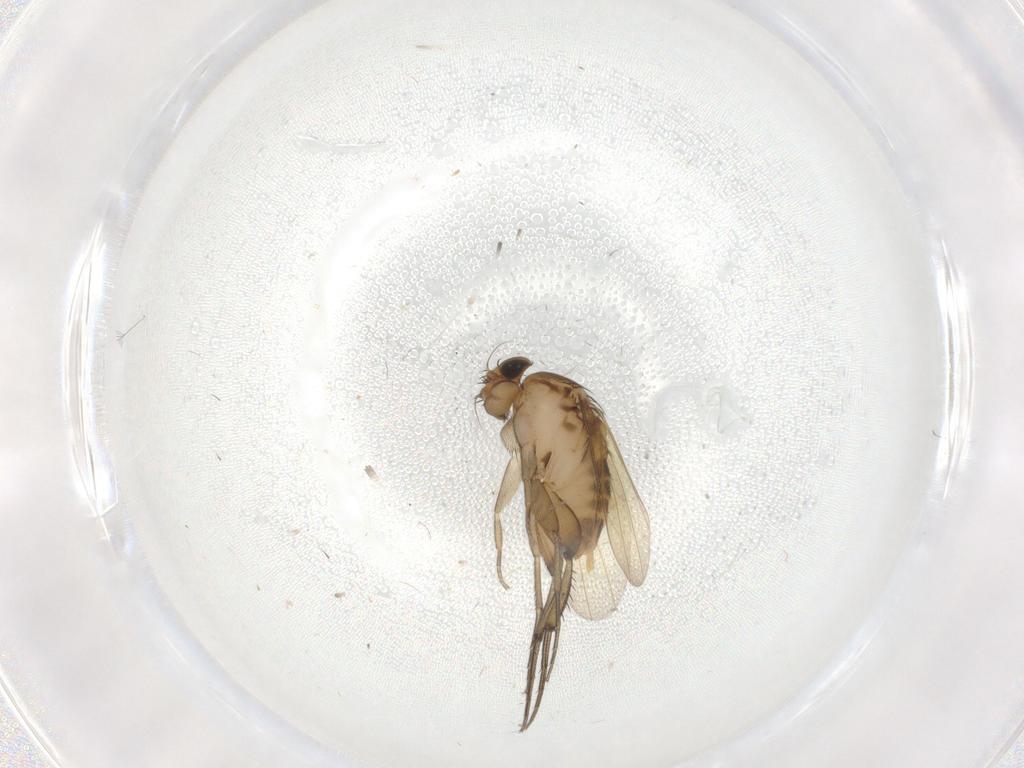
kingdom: Animalia
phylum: Arthropoda
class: Insecta
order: Diptera
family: Phoridae
